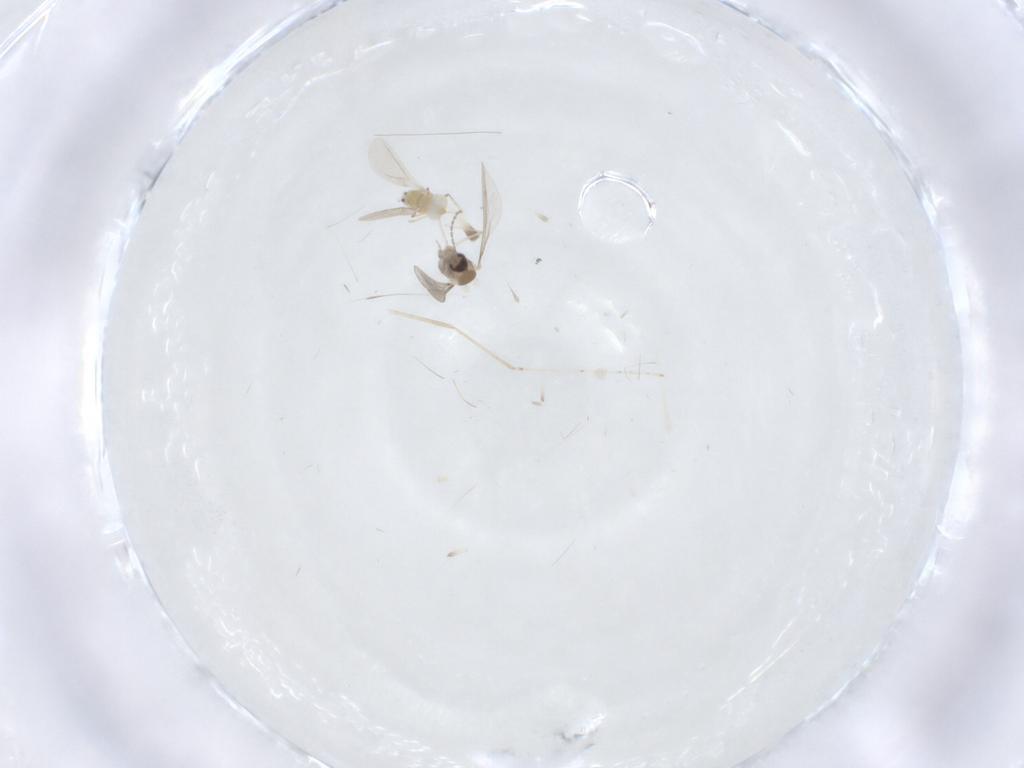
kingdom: Animalia
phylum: Arthropoda
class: Insecta
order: Diptera
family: Cecidomyiidae
